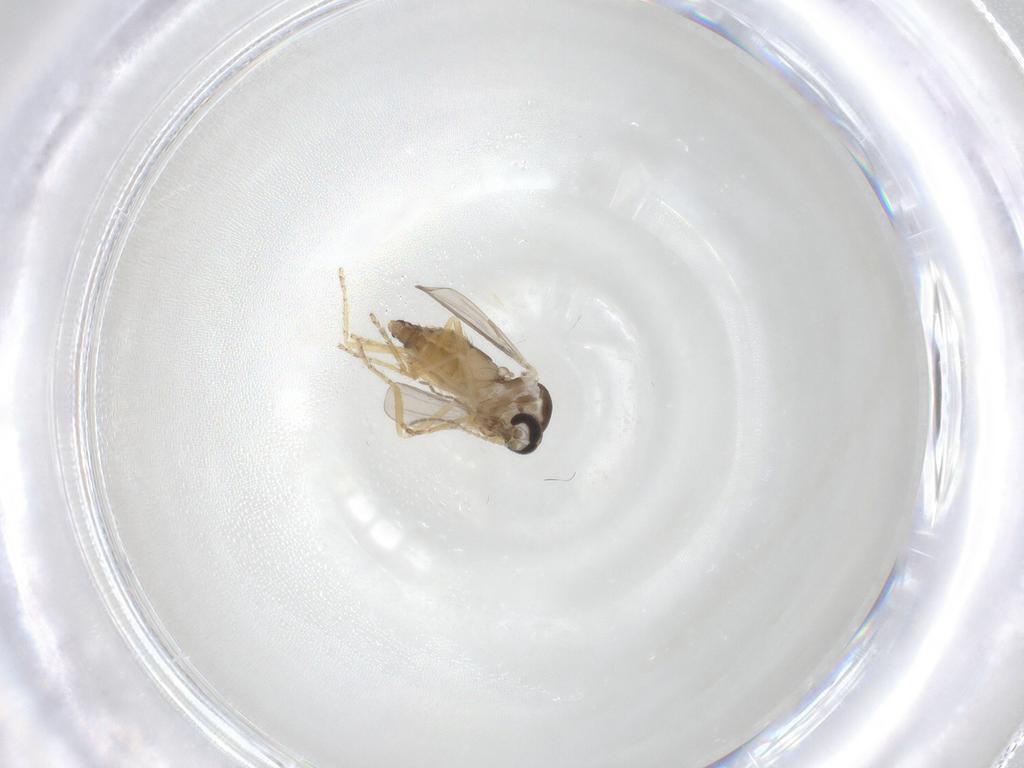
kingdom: Animalia
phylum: Arthropoda
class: Insecta
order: Diptera
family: Ceratopogonidae
